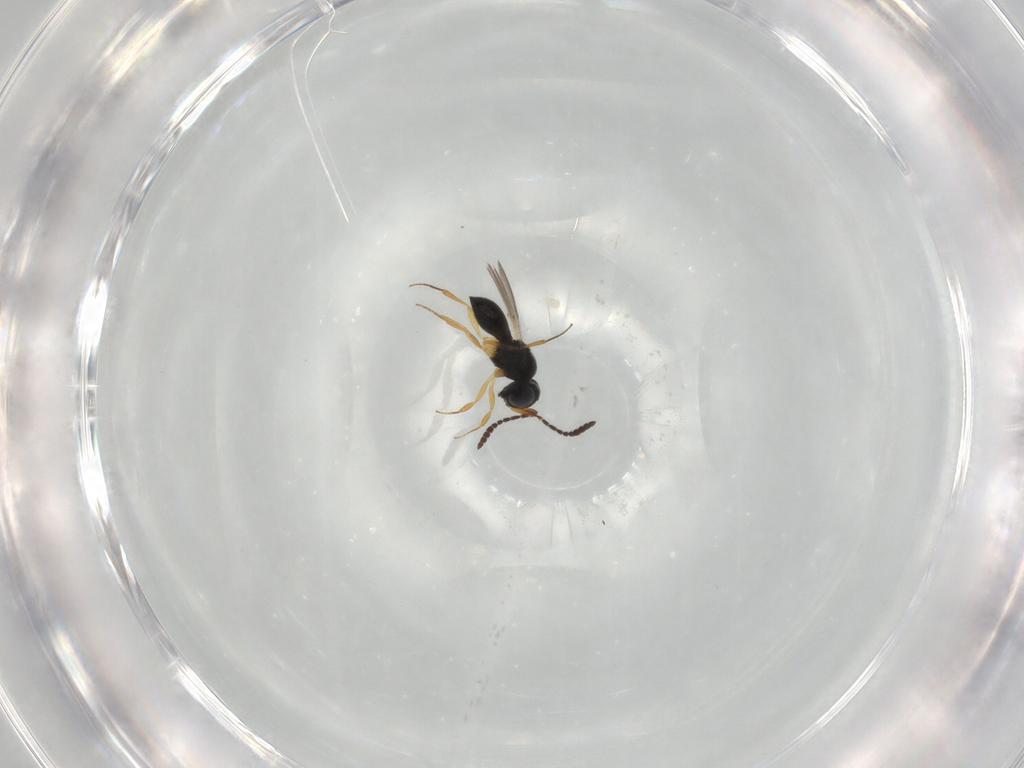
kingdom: Animalia
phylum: Arthropoda
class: Insecta
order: Hymenoptera
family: Scelionidae
